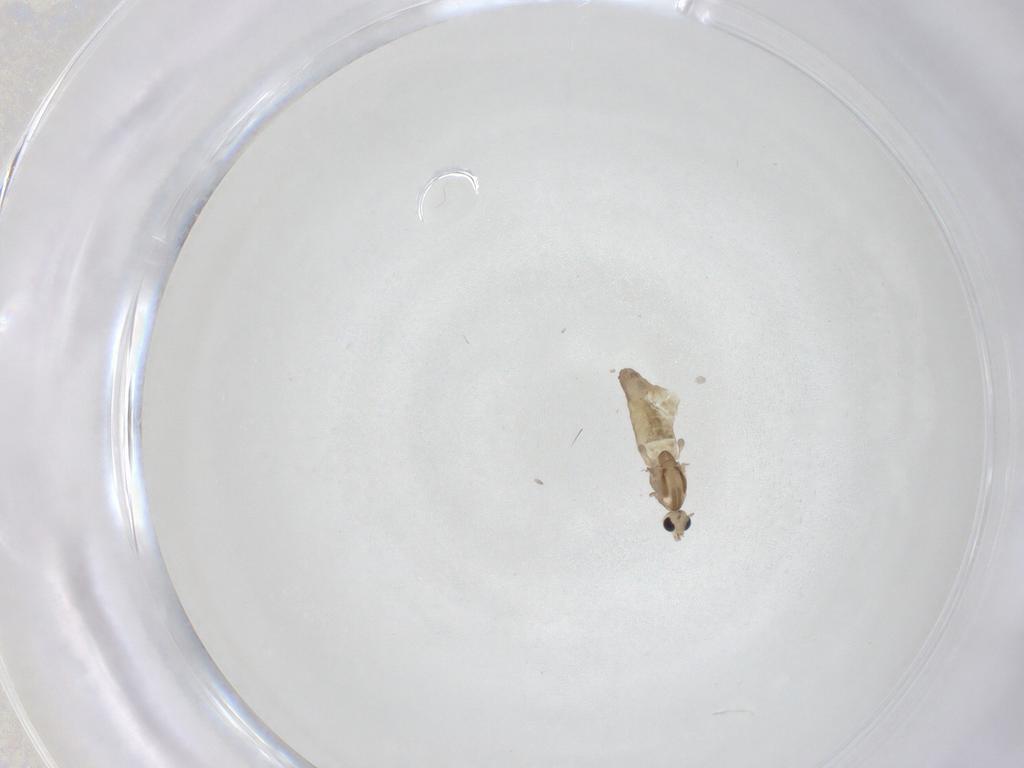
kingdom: Animalia
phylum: Arthropoda
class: Insecta
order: Diptera
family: Chironomidae
